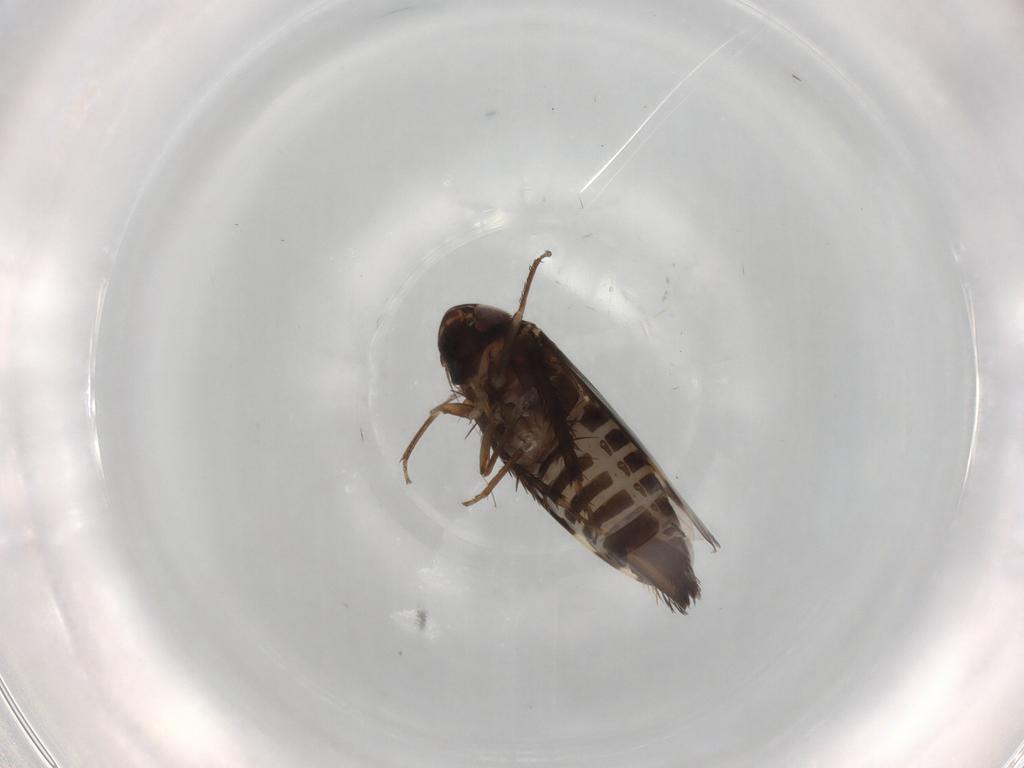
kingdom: Animalia
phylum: Arthropoda
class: Insecta
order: Hemiptera
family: Cicadellidae
